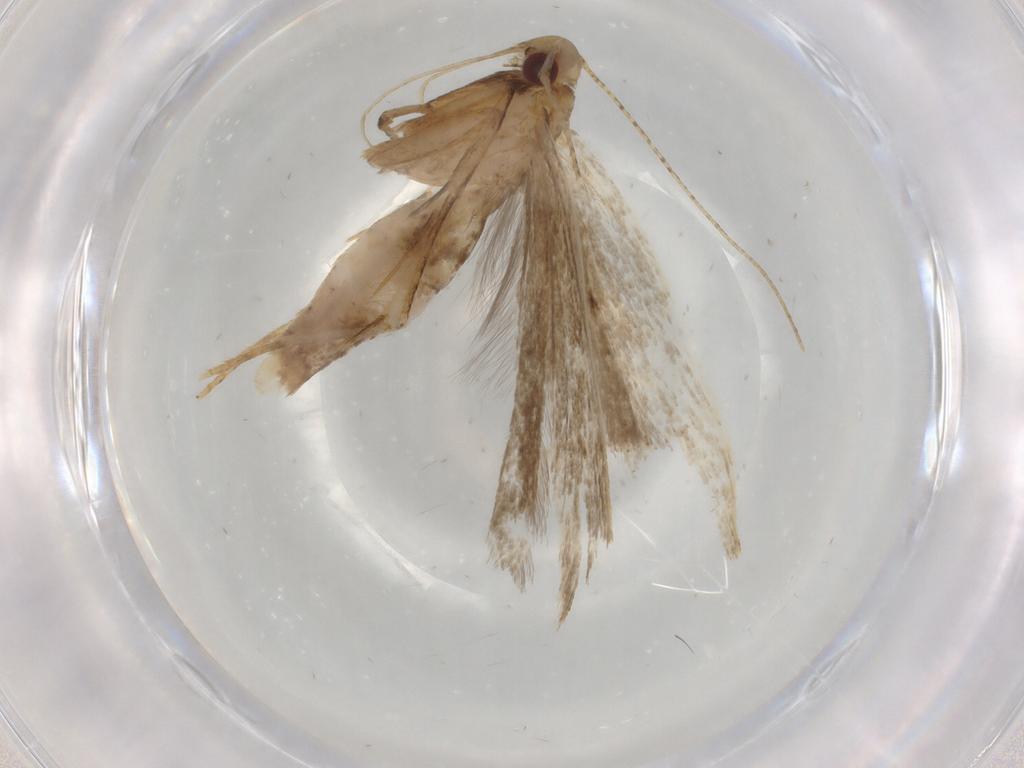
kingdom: Animalia
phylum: Arthropoda
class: Insecta
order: Lepidoptera
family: Gelechiidae
